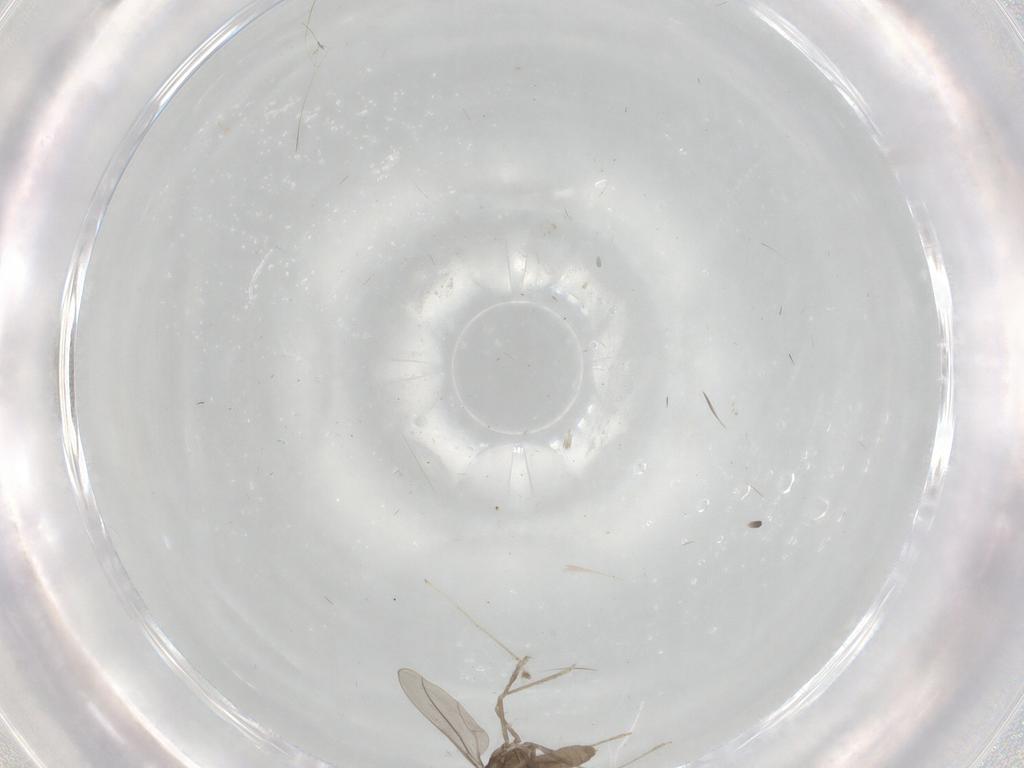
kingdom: Animalia
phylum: Arthropoda
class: Insecta
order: Diptera
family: Cecidomyiidae
